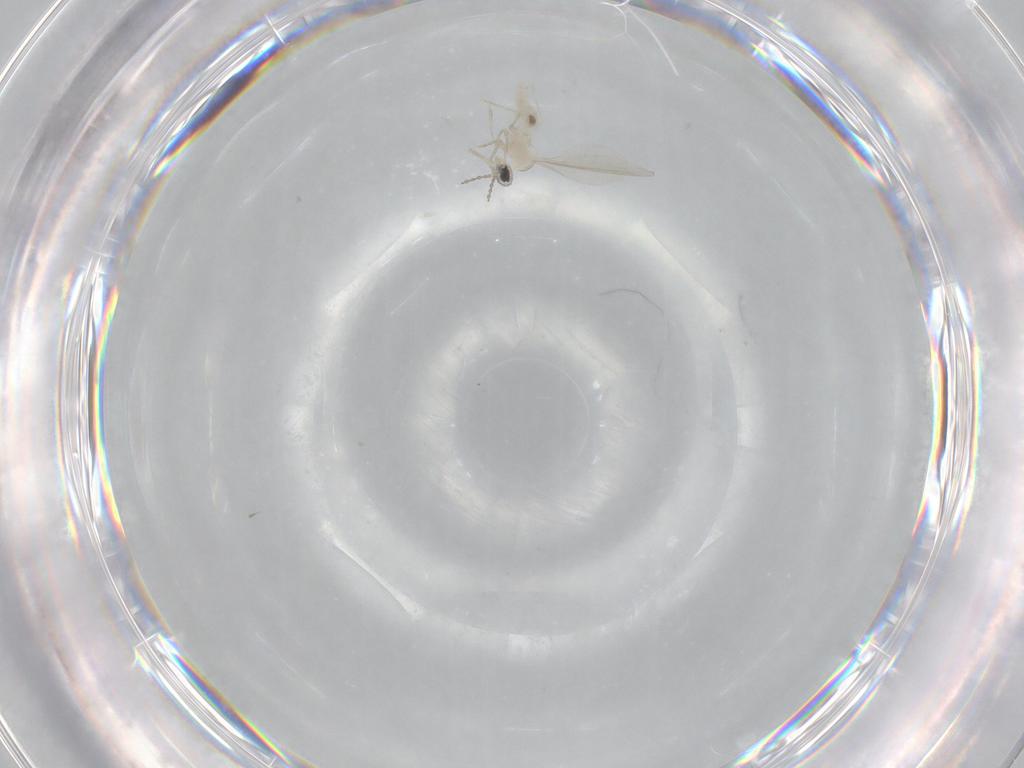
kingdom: Animalia
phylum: Arthropoda
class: Insecta
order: Diptera
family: Cecidomyiidae
